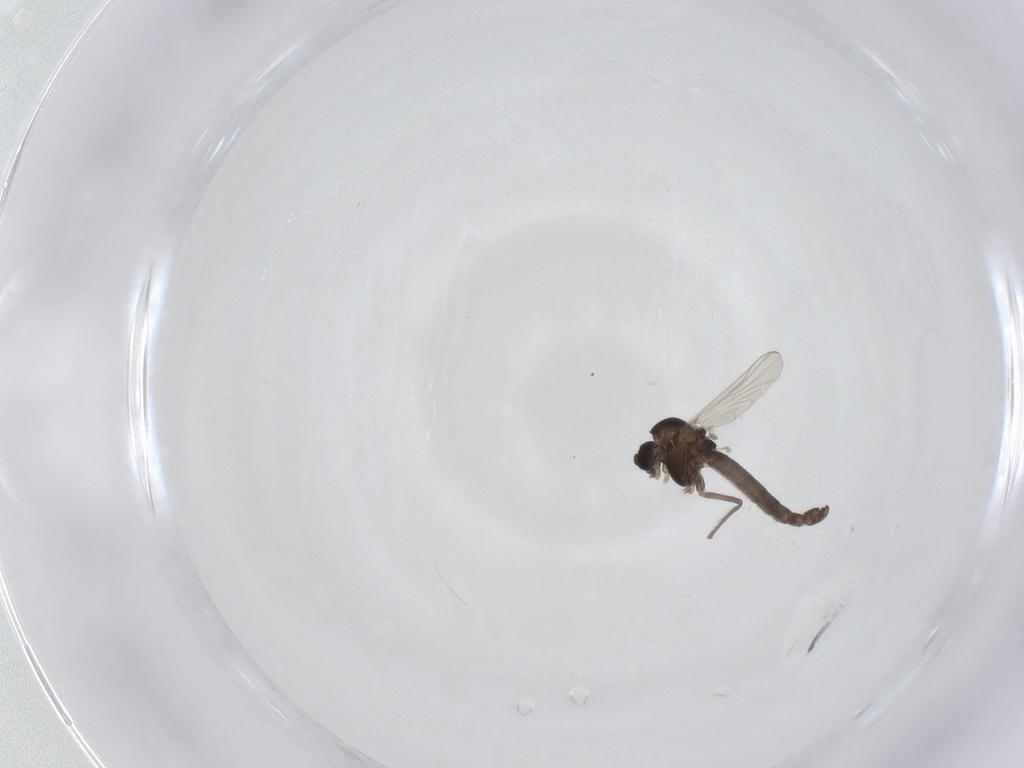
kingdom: Animalia
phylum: Arthropoda
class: Insecta
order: Diptera
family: Chironomidae
